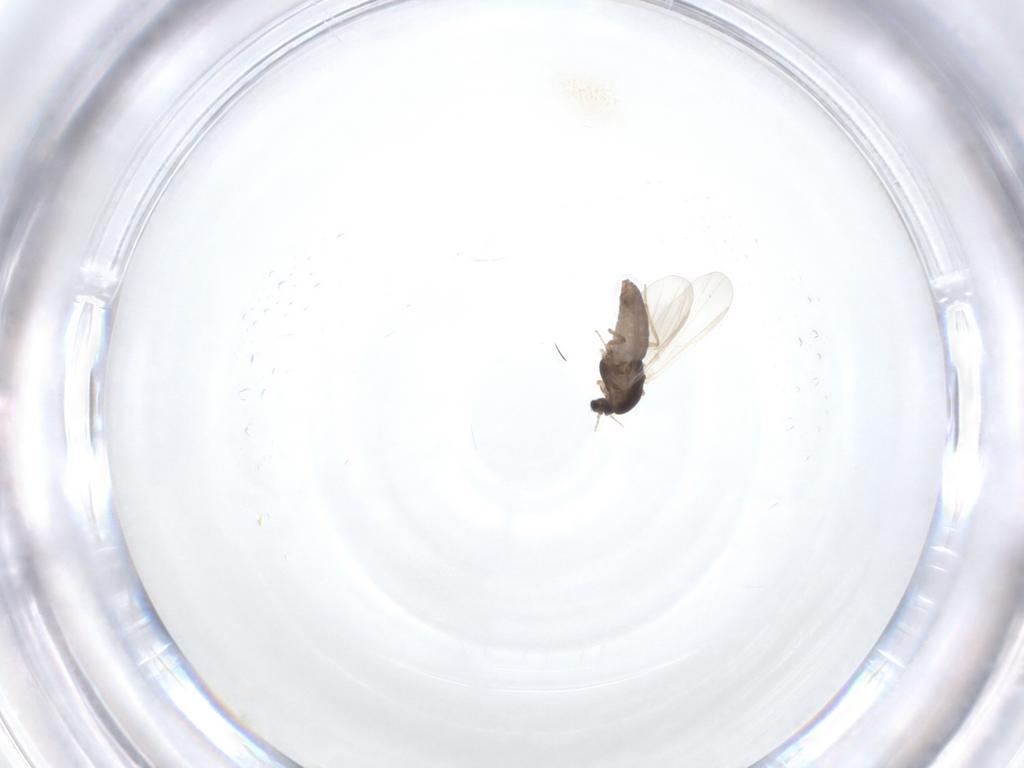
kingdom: Animalia
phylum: Arthropoda
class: Insecta
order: Diptera
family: Chironomidae
